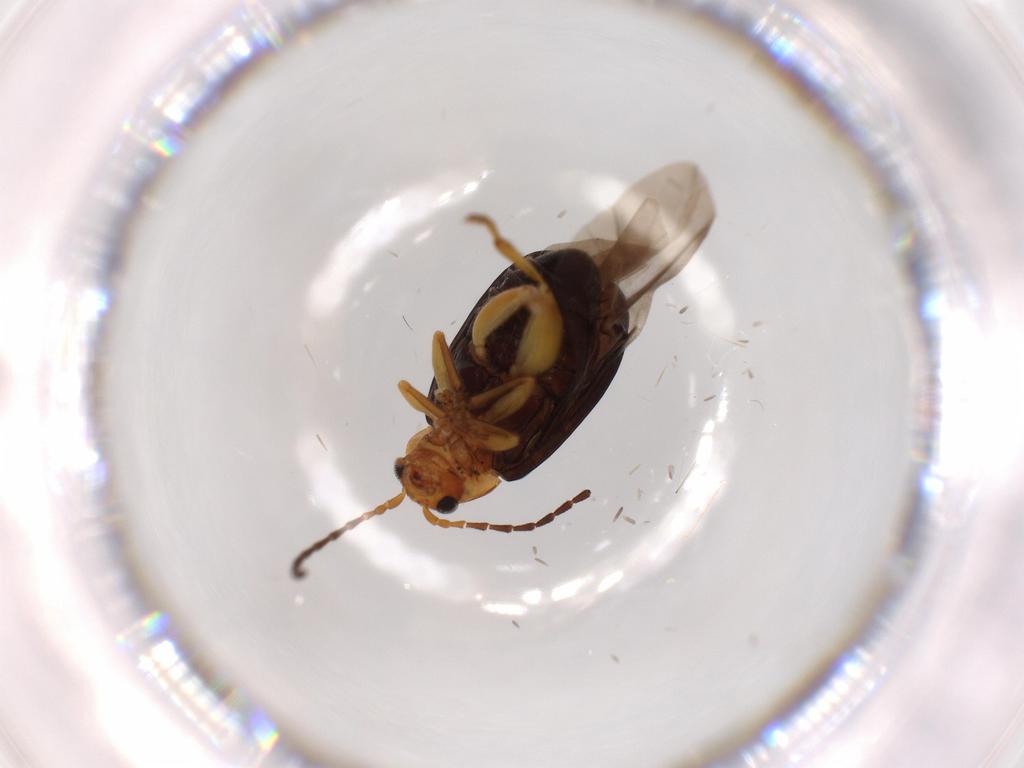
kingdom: Animalia
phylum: Arthropoda
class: Insecta
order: Coleoptera
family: Chrysomelidae
